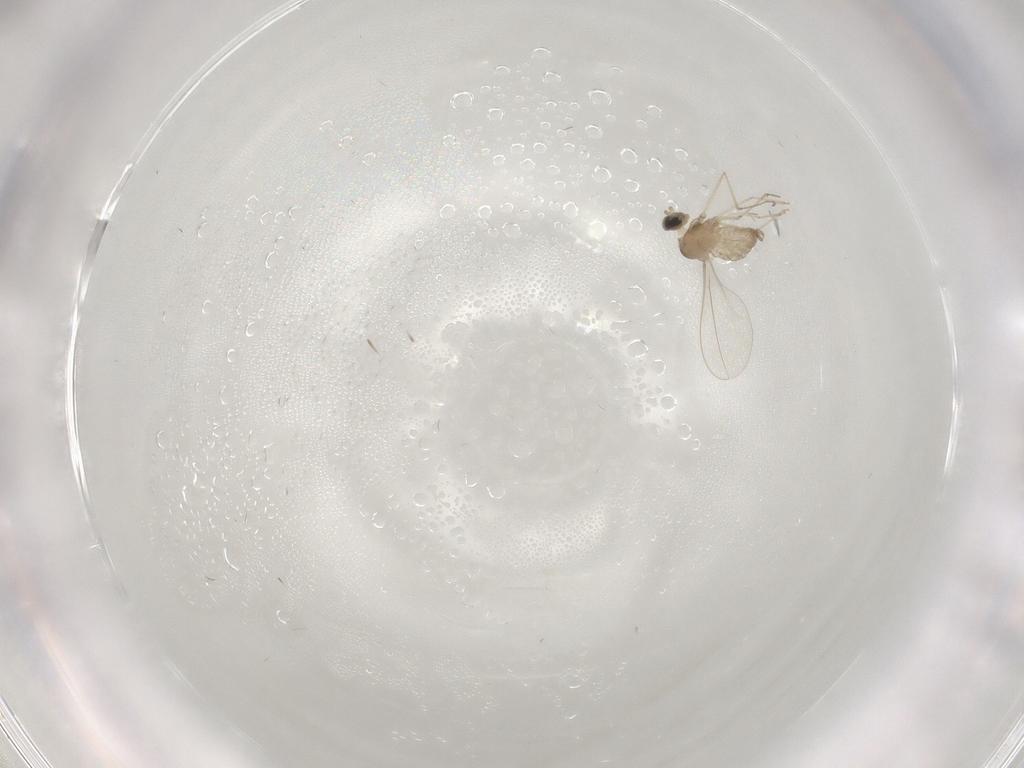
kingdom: Animalia
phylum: Arthropoda
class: Insecta
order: Diptera
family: Cecidomyiidae
